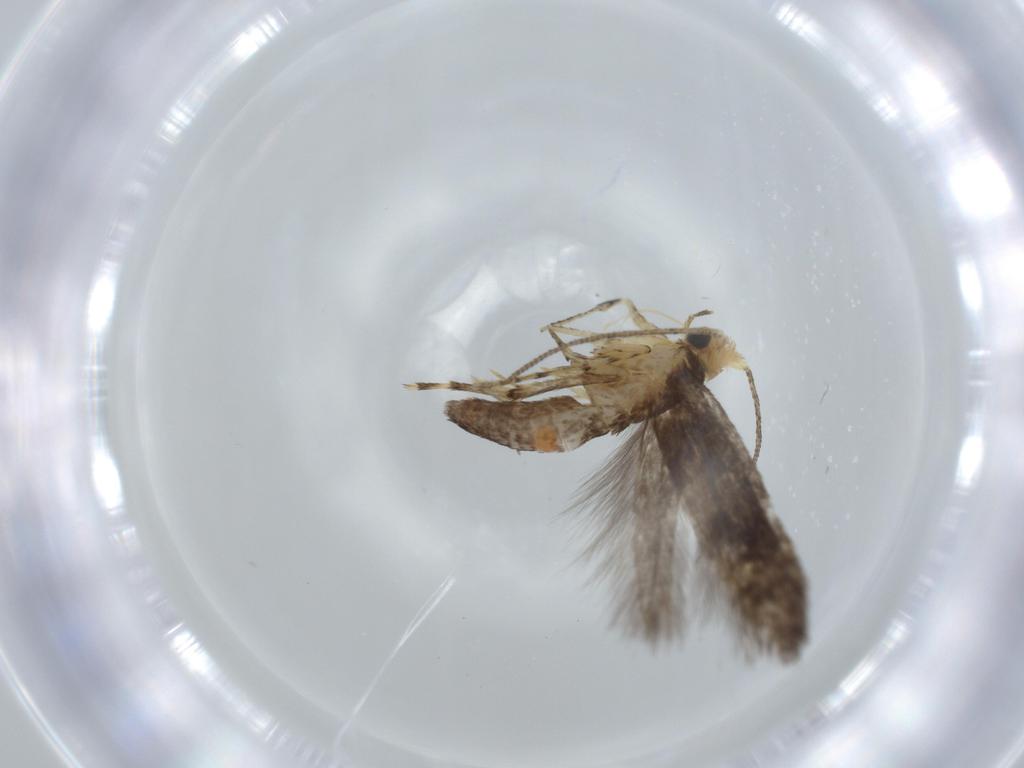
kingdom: Animalia
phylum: Arthropoda
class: Insecta
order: Lepidoptera
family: Argyresthiidae
